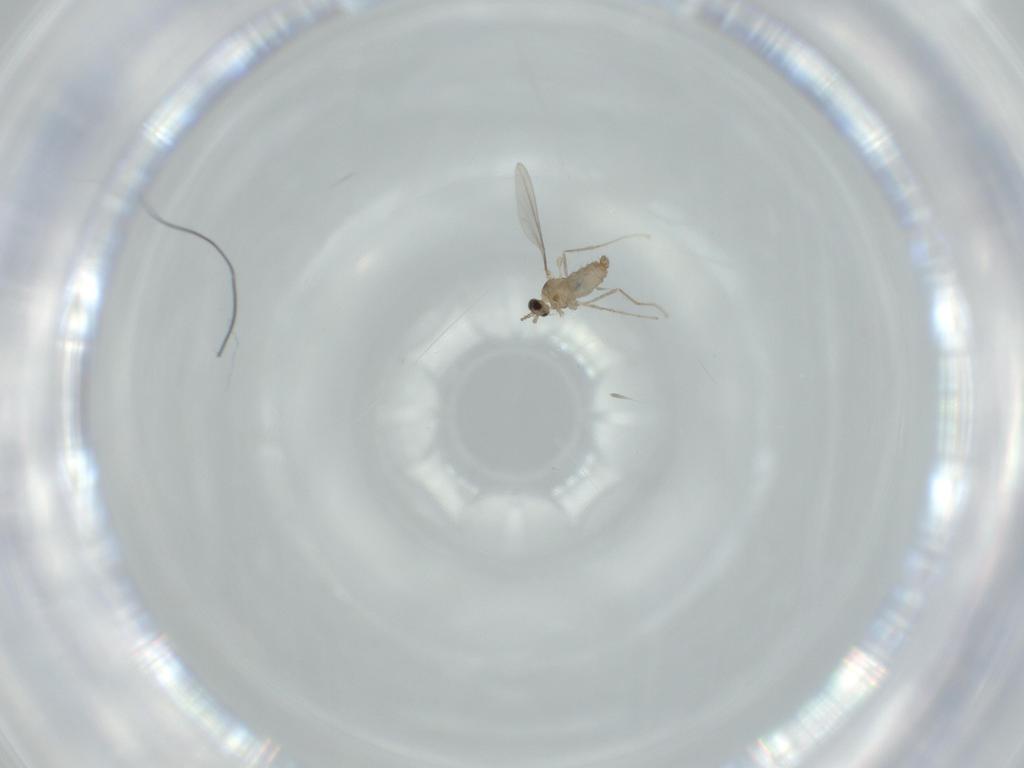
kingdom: Animalia
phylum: Arthropoda
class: Insecta
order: Diptera
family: Cecidomyiidae
